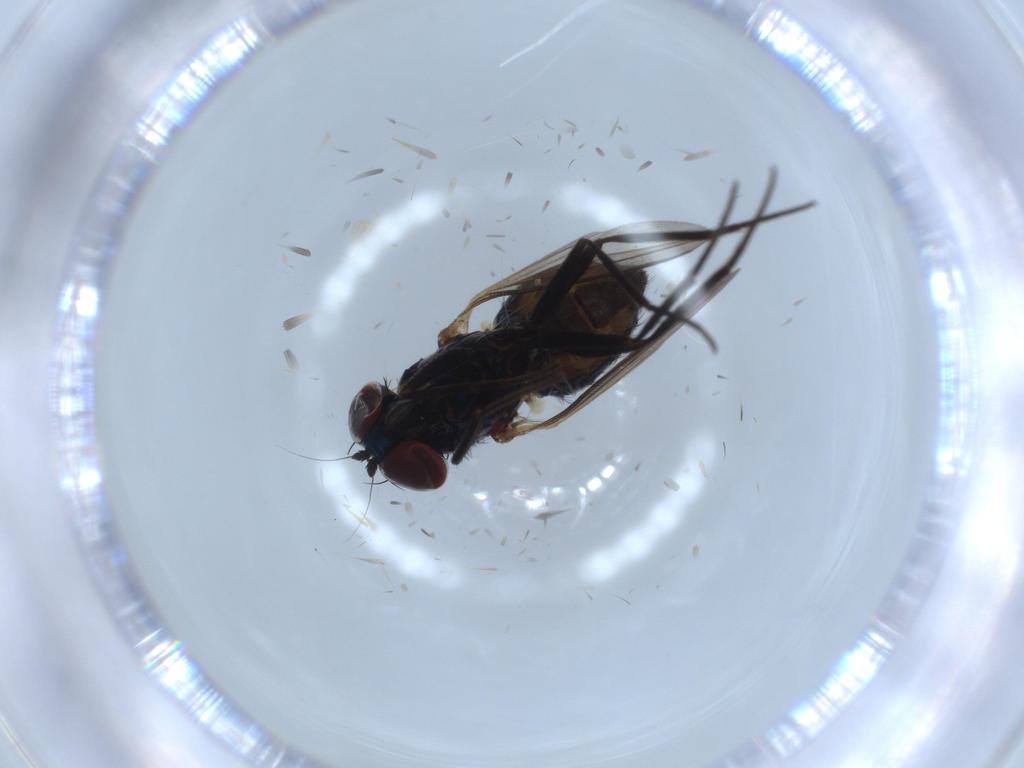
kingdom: Animalia
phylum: Arthropoda
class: Insecta
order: Diptera
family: Dolichopodidae
